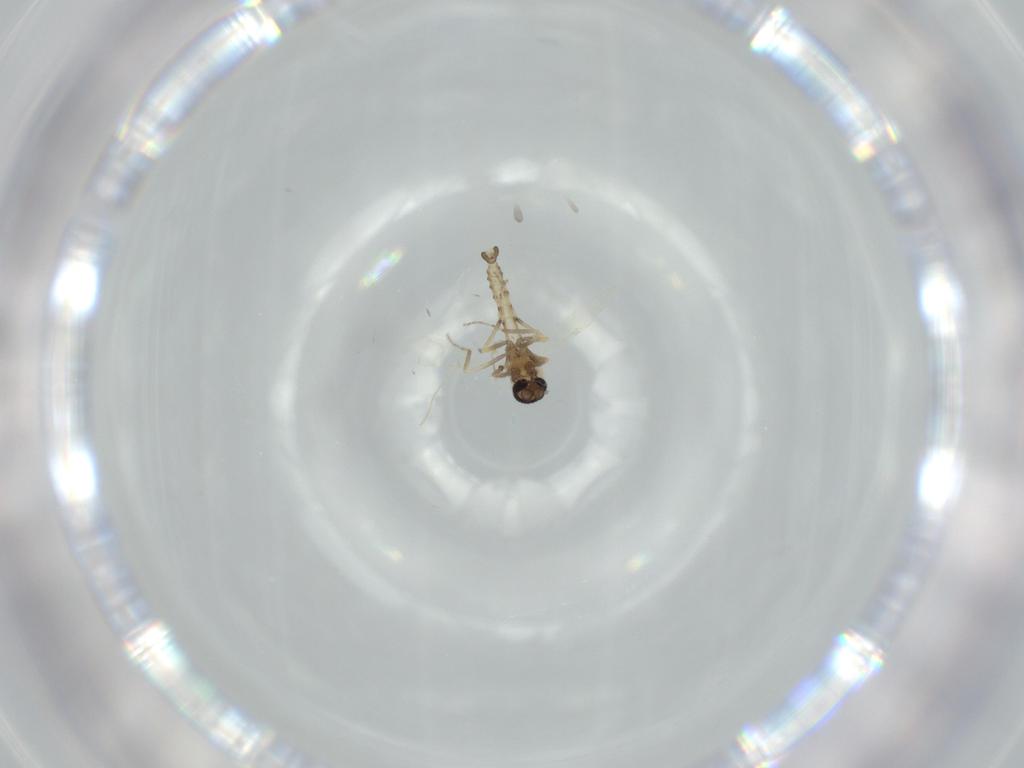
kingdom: Animalia
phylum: Arthropoda
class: Insecta
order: Diptera
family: Ceratopogonidae
